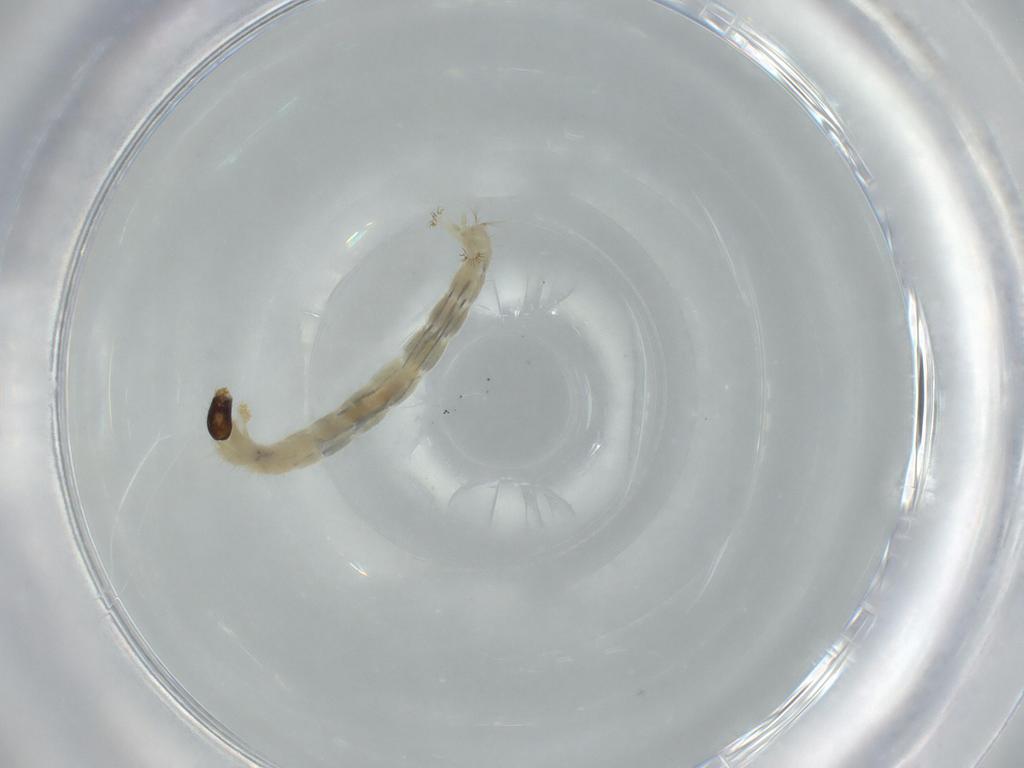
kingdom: Animalia
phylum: Arthropoda
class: Insecta
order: Diptera
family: Chironomidae
